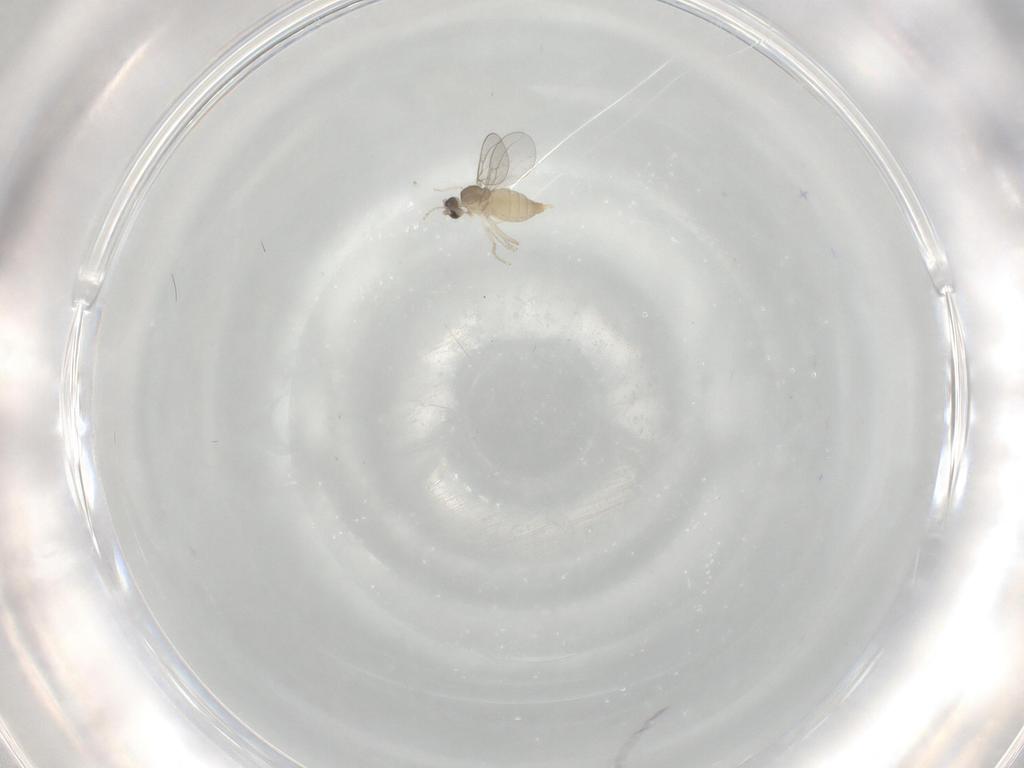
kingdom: Animalia
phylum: Arthropoda
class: Insecta
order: Diptera
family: Cecidomyiidae
